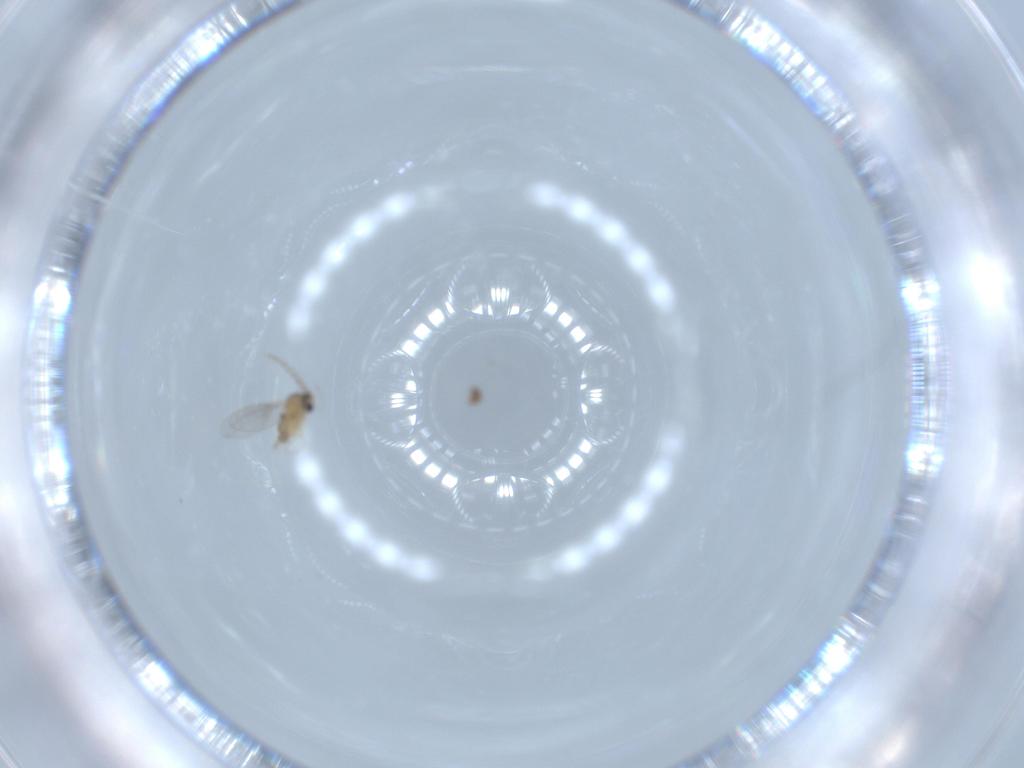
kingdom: Animalia
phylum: Arthropoda
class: Insecta
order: Diptera
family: Cecidomyiidae
